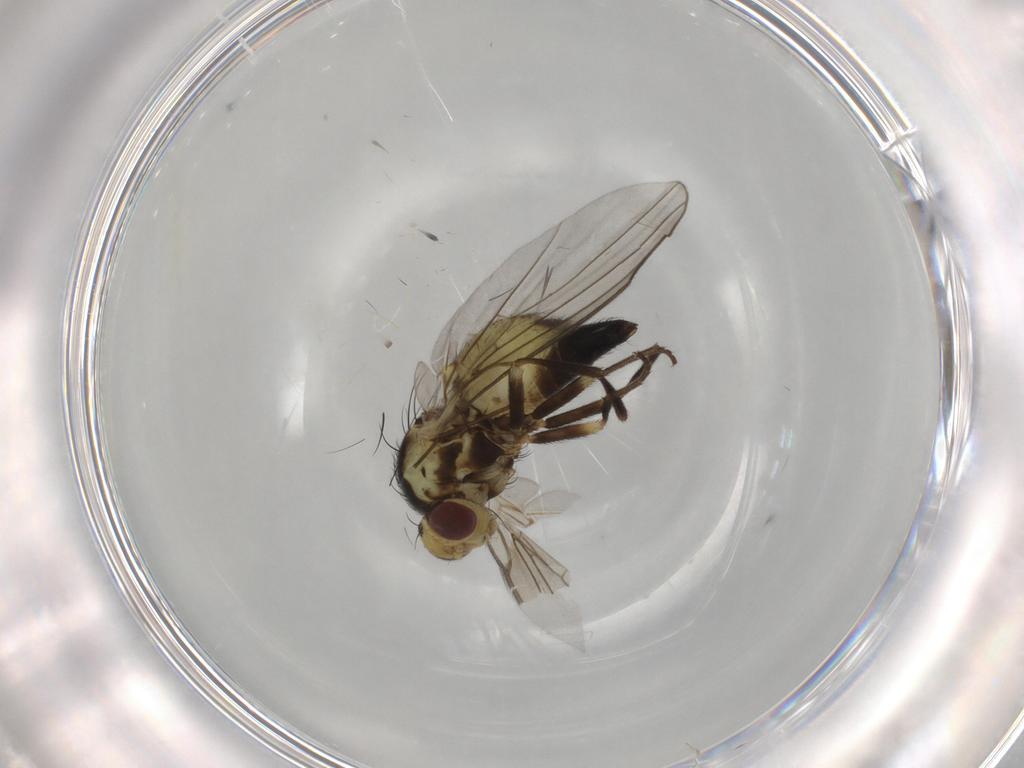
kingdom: Animalia
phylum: Arthropoda
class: Insecta
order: Diptera
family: Agromyzidae
